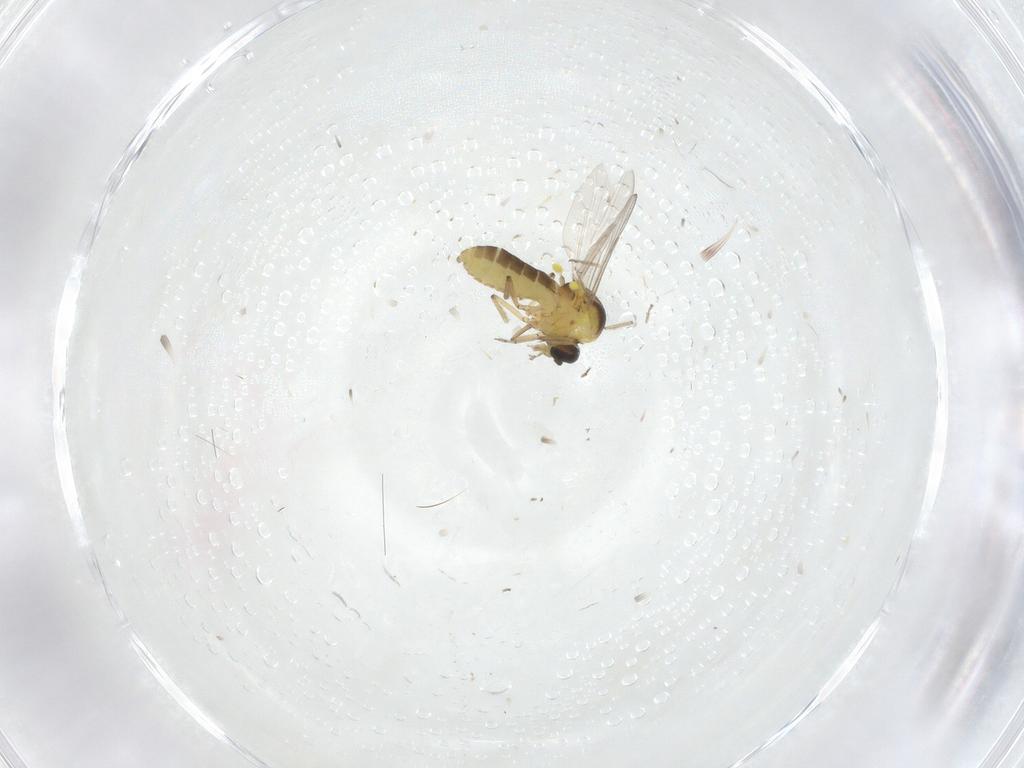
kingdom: Animalia
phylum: Arthropoda
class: Insecta
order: Diptera
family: Ceratopogonidae
